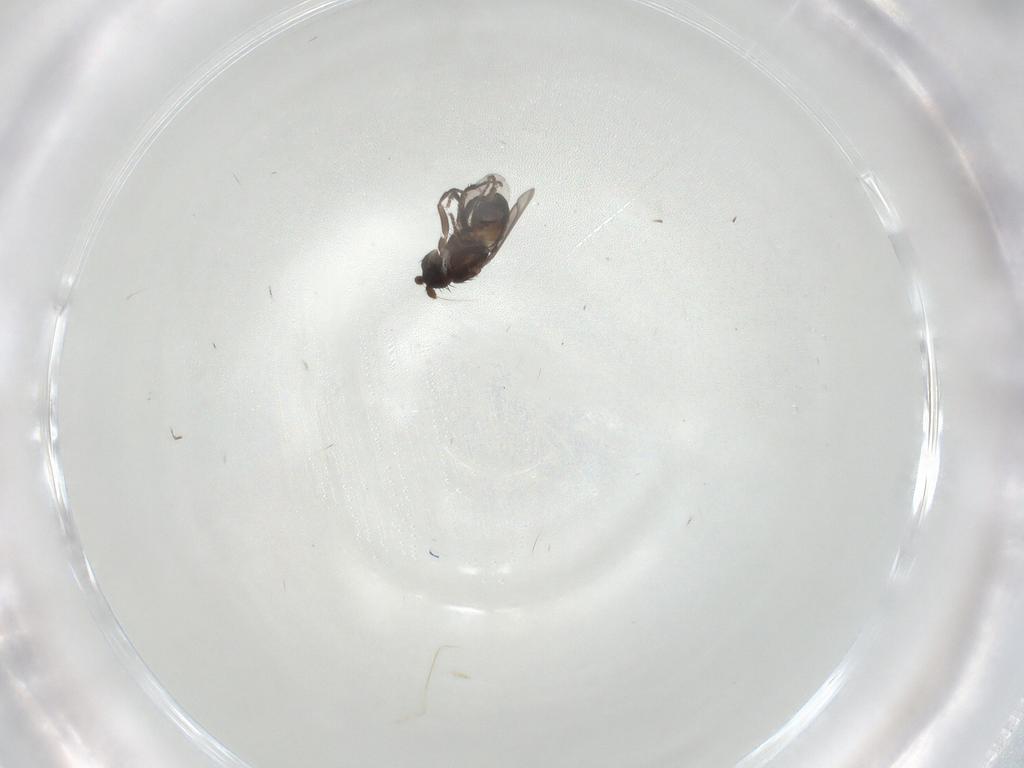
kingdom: Animalia
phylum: Arthropoda
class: Insecta
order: Diptera
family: Sphaeroceridae
